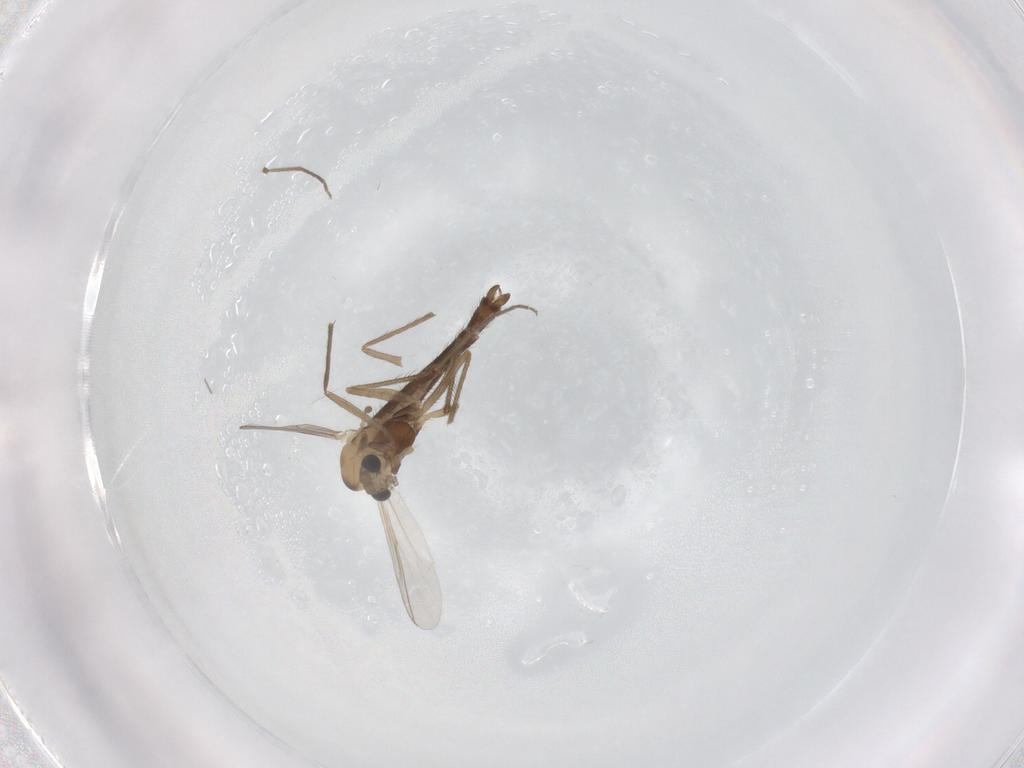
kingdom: Animalia
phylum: Arthropoda
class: Insecta
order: Diptera
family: Chironomidae
